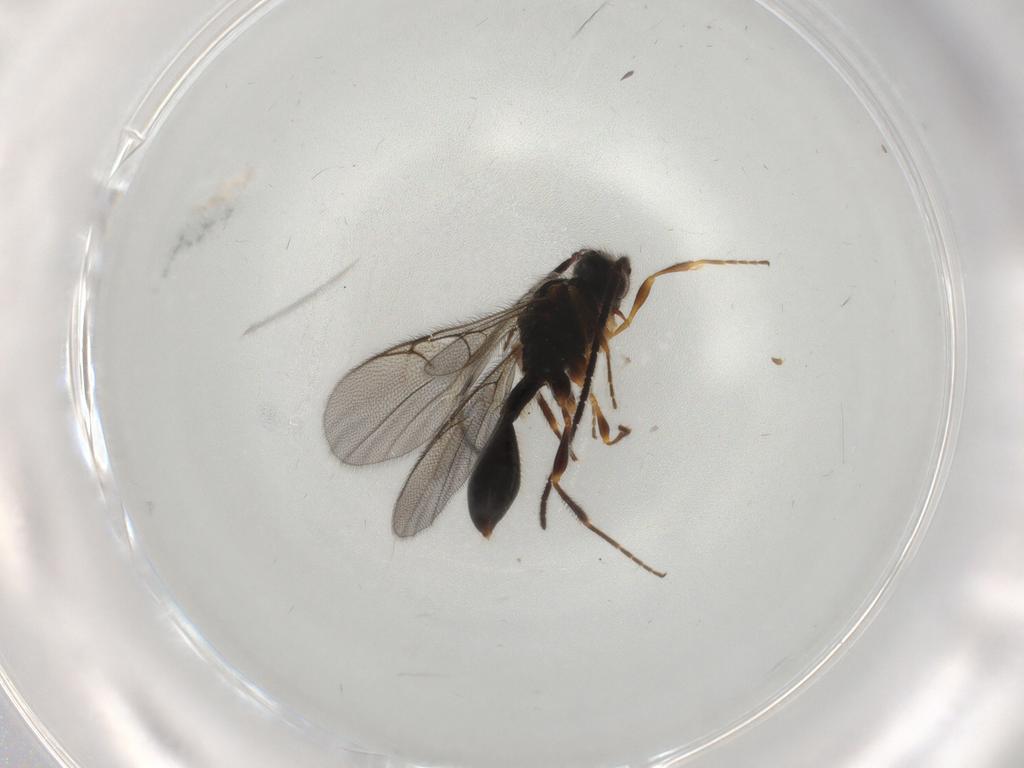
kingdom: Animalia
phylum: Arthropoda
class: Insecta
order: Hymenoptera
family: Diapriidae
